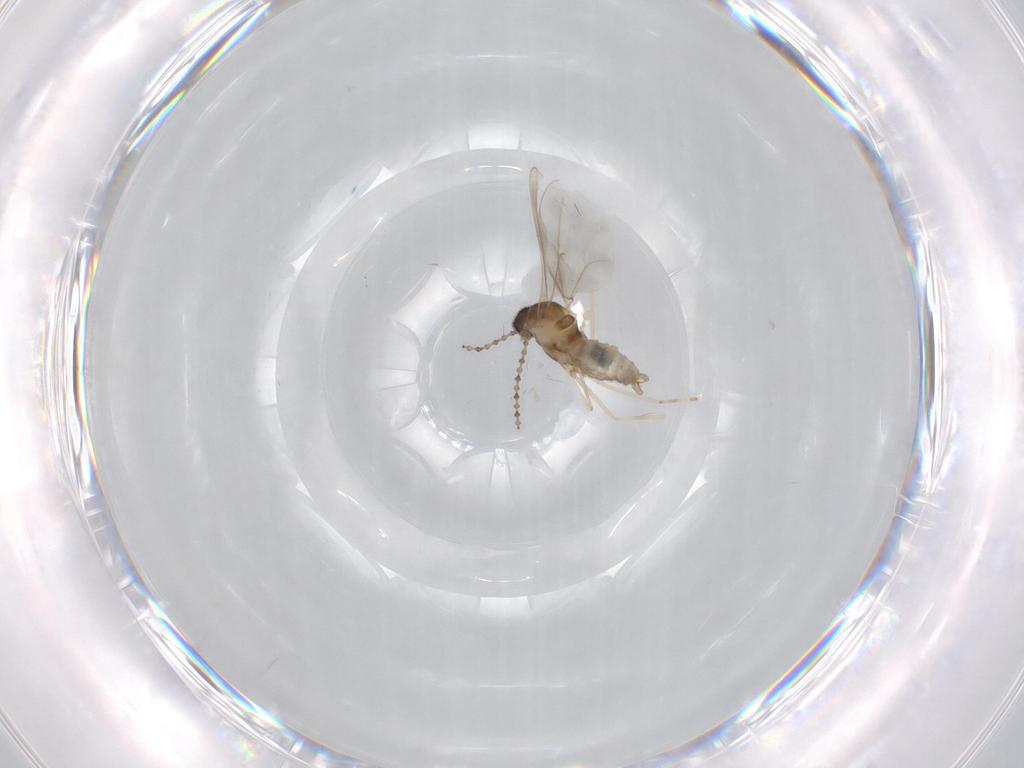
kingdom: Animalia
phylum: Arthropoda
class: Insecta
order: Diptera
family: Cecidomyiidae
